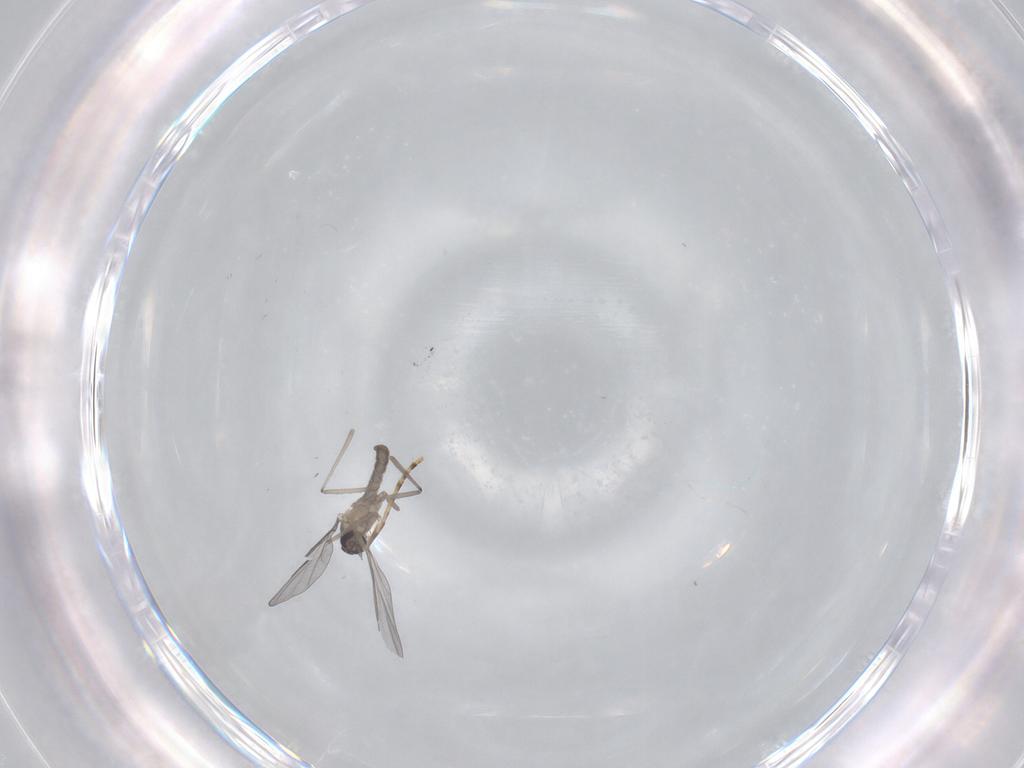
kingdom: Animalia
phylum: Arthropoda
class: Insecta
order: Diptera
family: Cecidomyiidae
